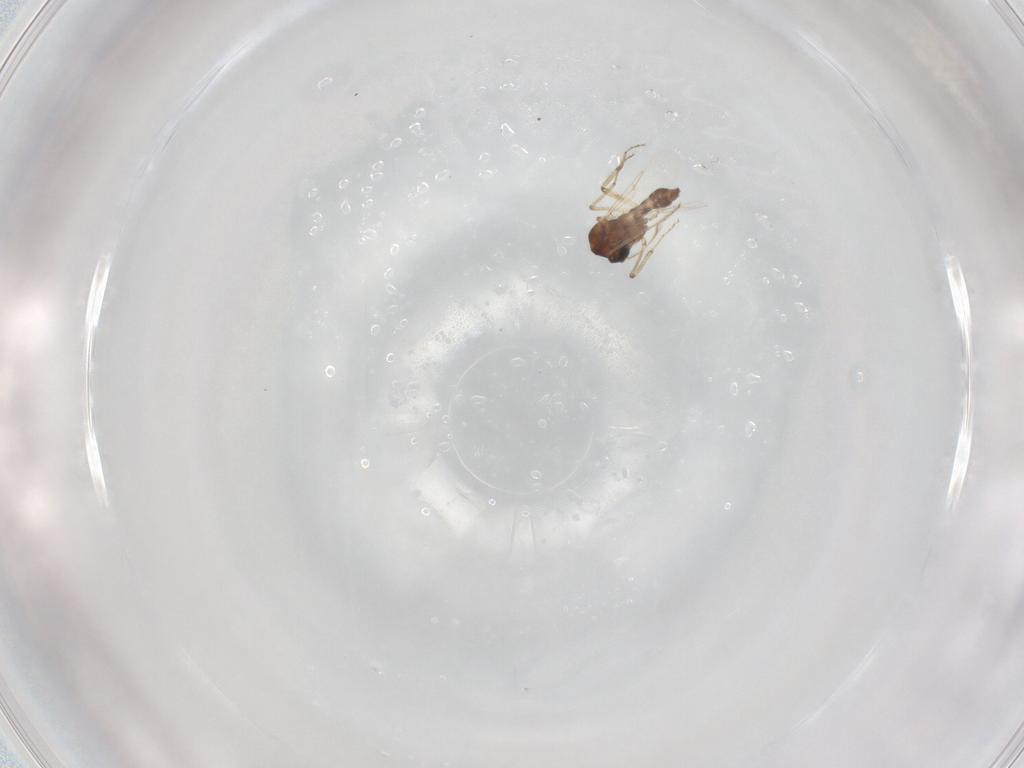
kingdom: Animalia
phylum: Arthropoda
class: Insecta
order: Diptera
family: Ceratopogonidae
